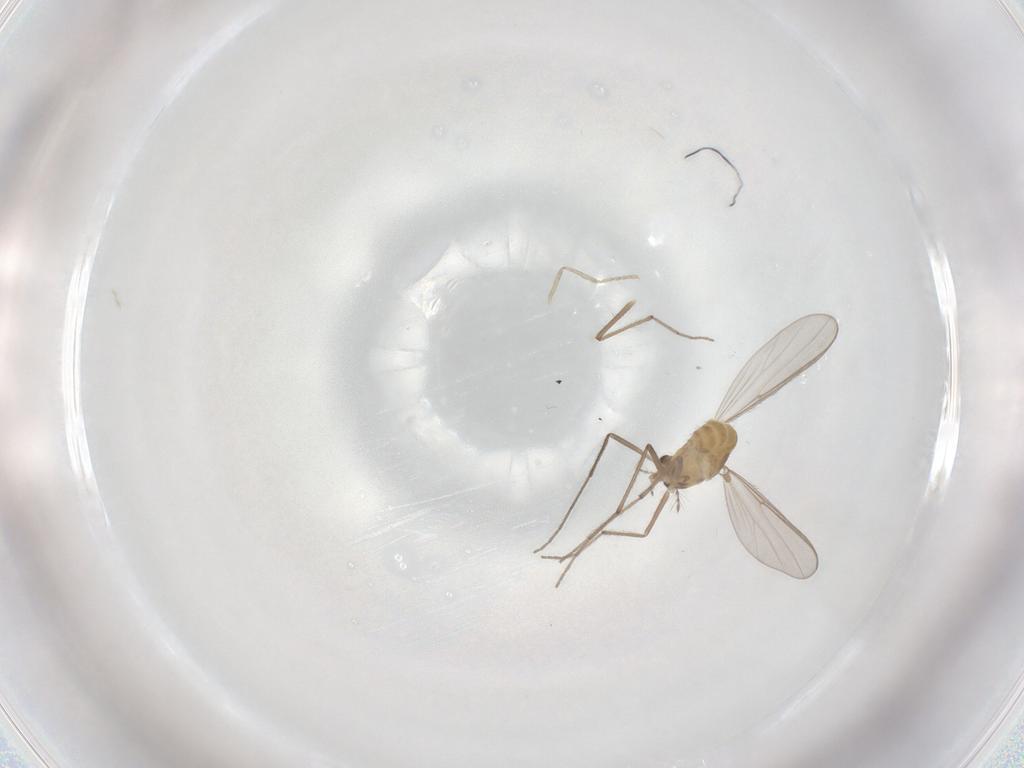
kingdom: Animalia
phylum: Arthropoda
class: Insecta
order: Diptera
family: Chironomidae
